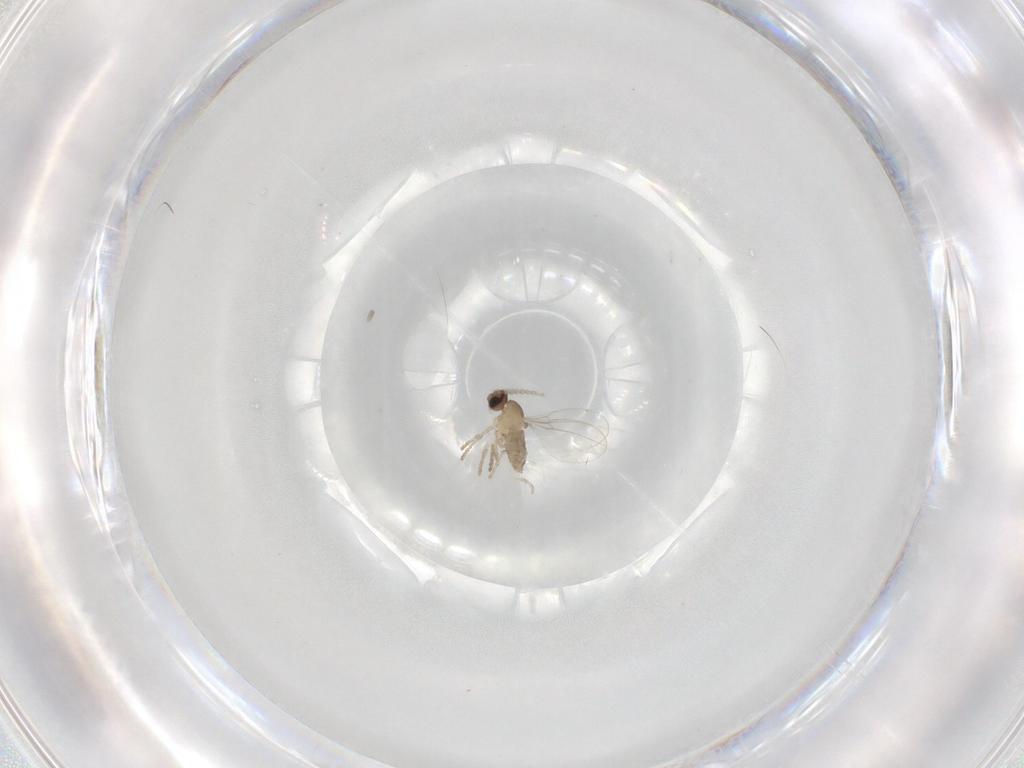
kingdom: Animalia
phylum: Arthropoda
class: Insecta
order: Diptera
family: Cecidomyiidae
